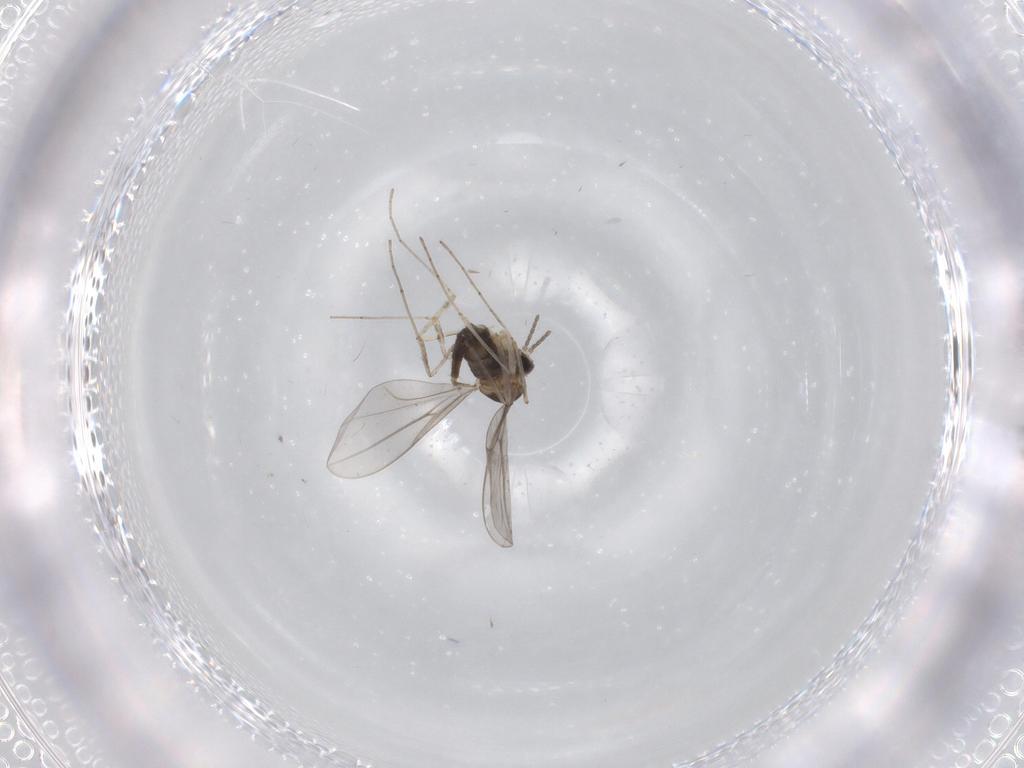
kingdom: Animalia
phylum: Arthropoda
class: Insecta
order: Diptera
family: Cecidomyiidae
